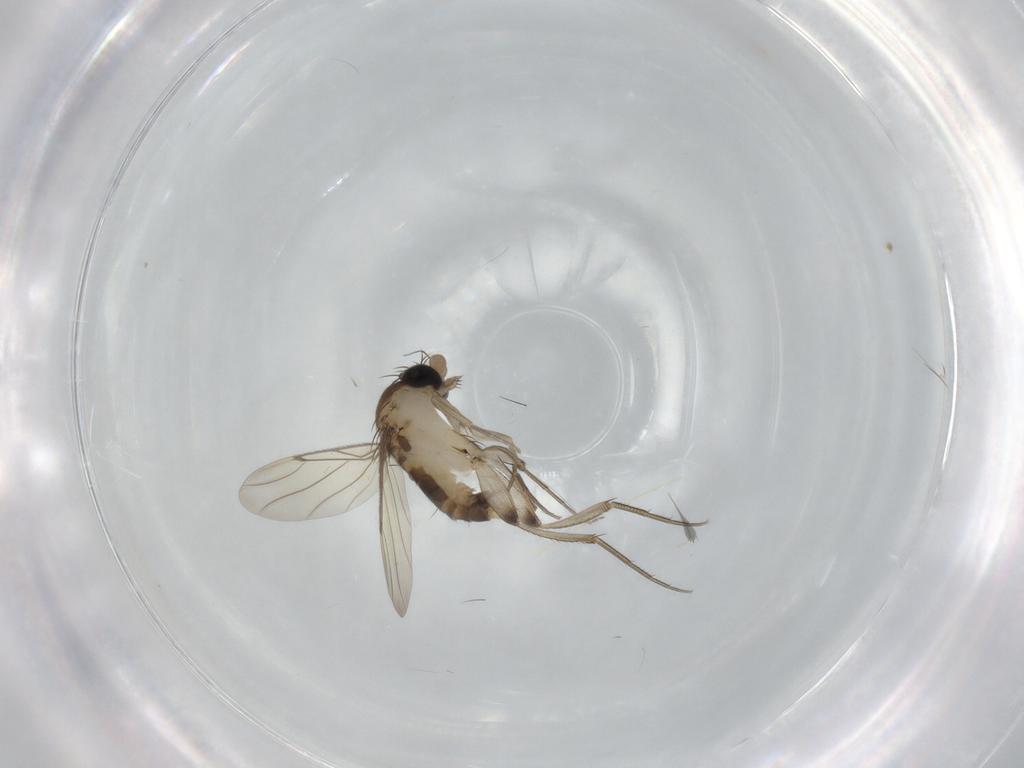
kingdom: Animalia
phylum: Arthropoda
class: Insecta
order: Diptera
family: Phoridae
